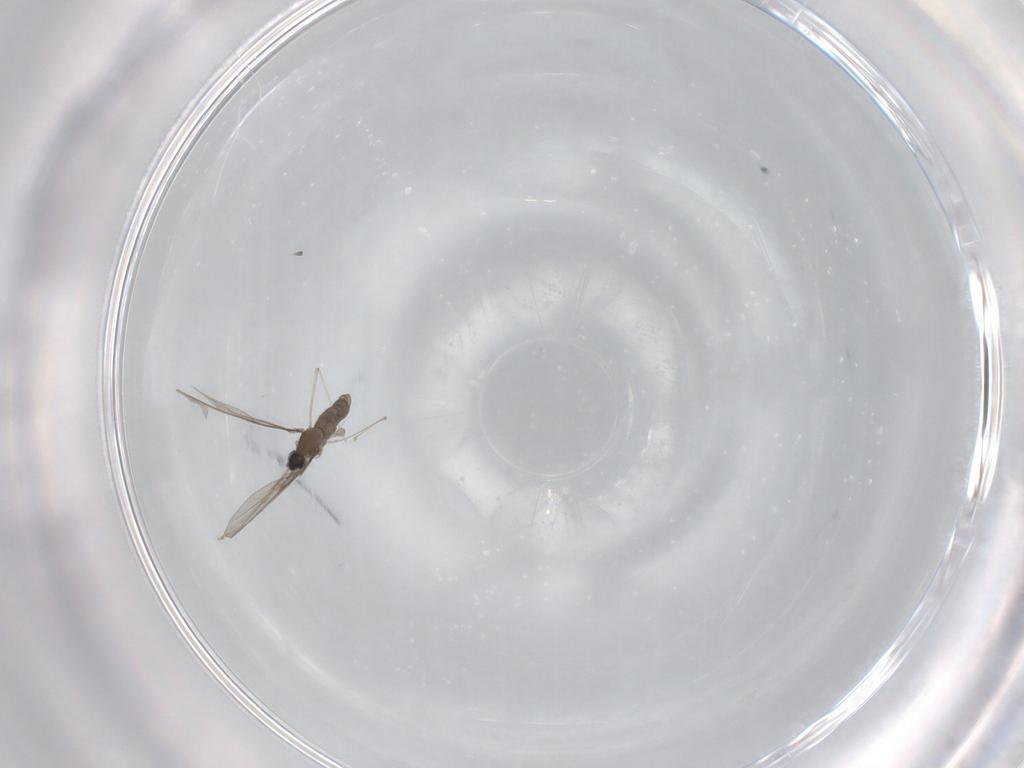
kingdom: Animalia
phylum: Arthropoda
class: Insecta
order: Diptera
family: Cecidomyiidae
